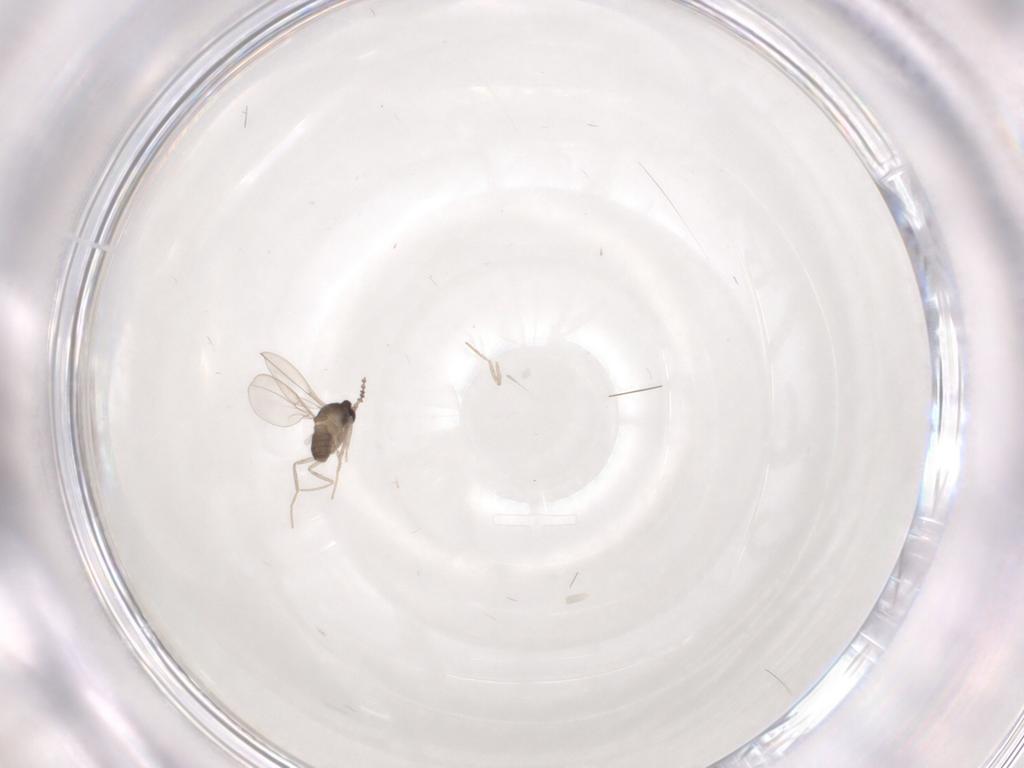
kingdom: Animalia
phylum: Arthropoda
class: Insecta
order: Diptera
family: Cecidomyiidae
